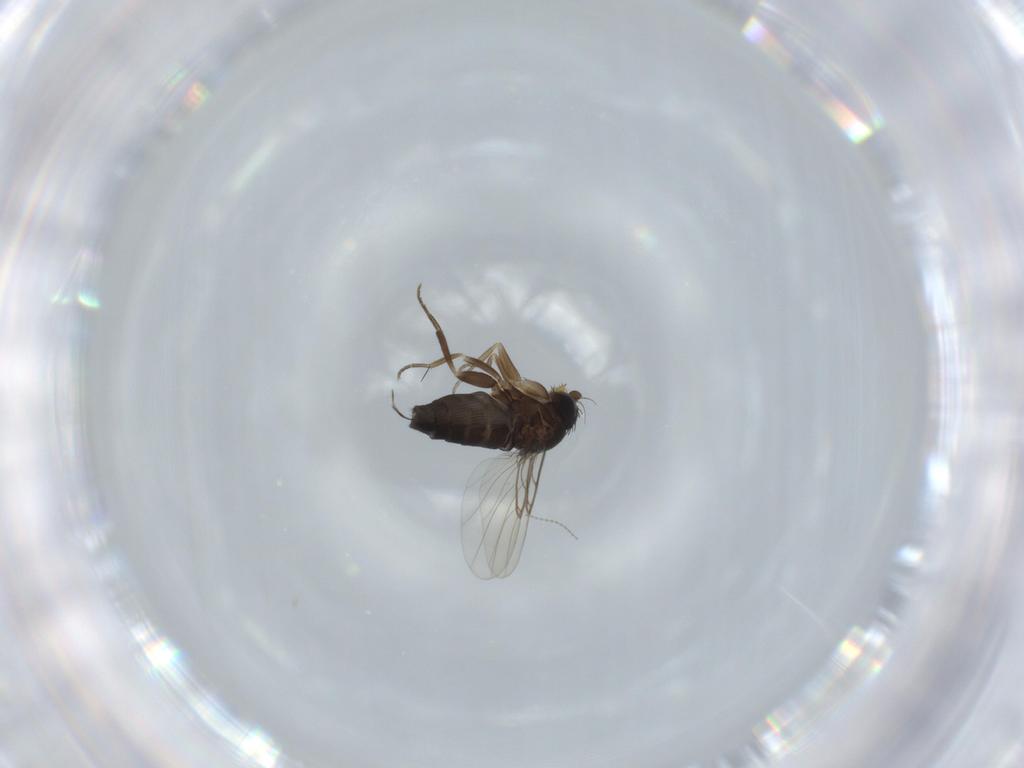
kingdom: Animalia
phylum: Arthropoda
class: Insecta
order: Diptera
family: Phoridae
